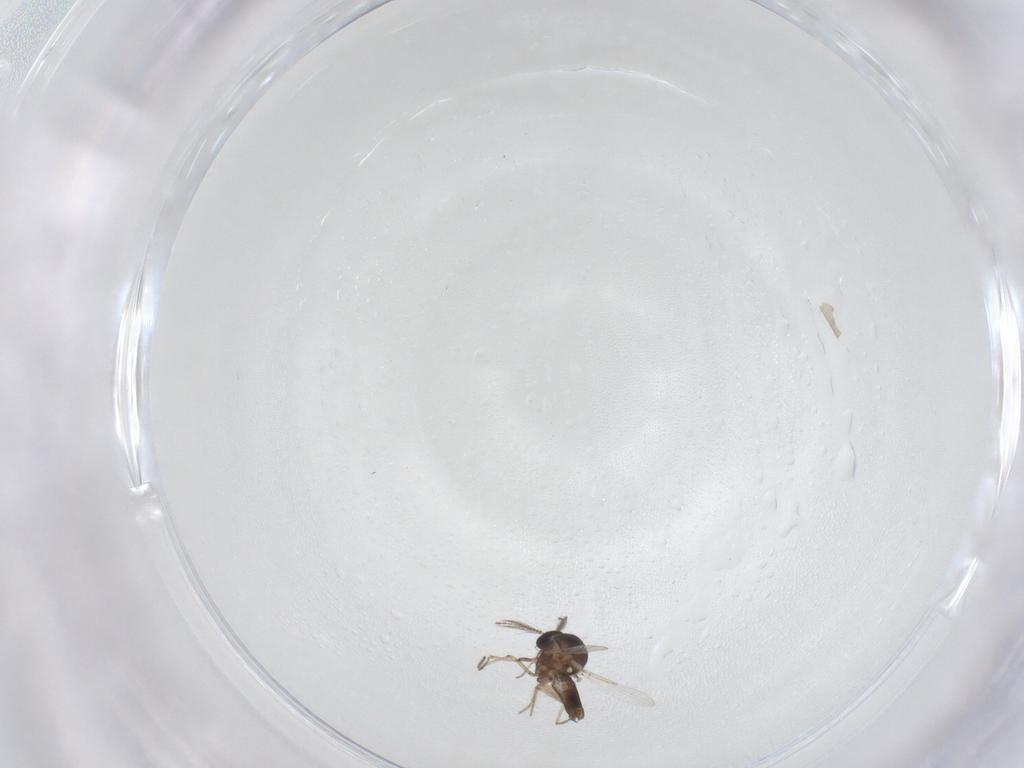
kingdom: Animalia
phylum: Arthropoda
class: Insecta
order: Diptera
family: Ceratopogonidae
